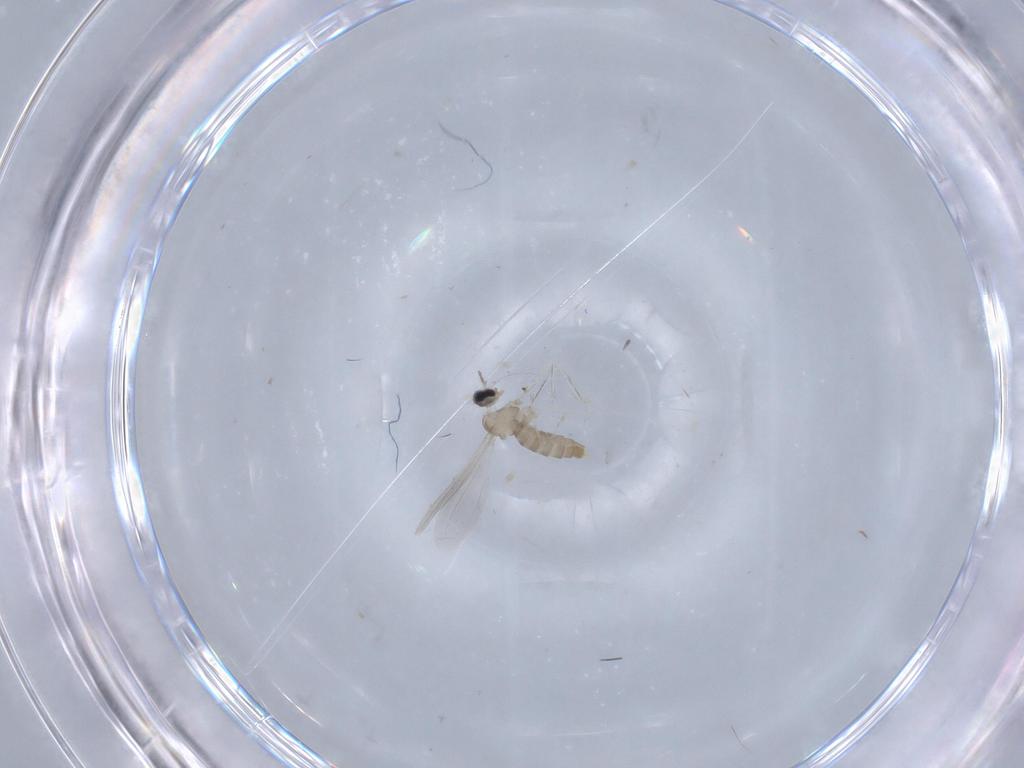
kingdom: Animalia
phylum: Arthropoda
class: Insecta
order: Diptera
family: Cecidomyiidae
